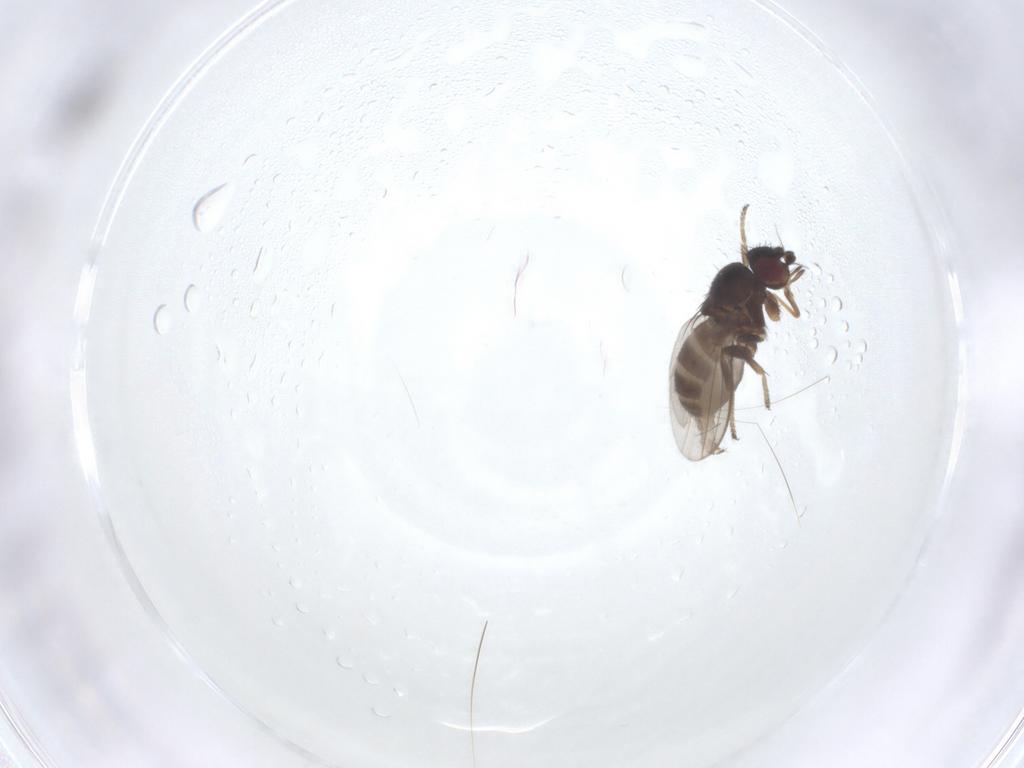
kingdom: Animalia
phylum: Arthropoda
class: Insecta
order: Diptera
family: Milichiidae
